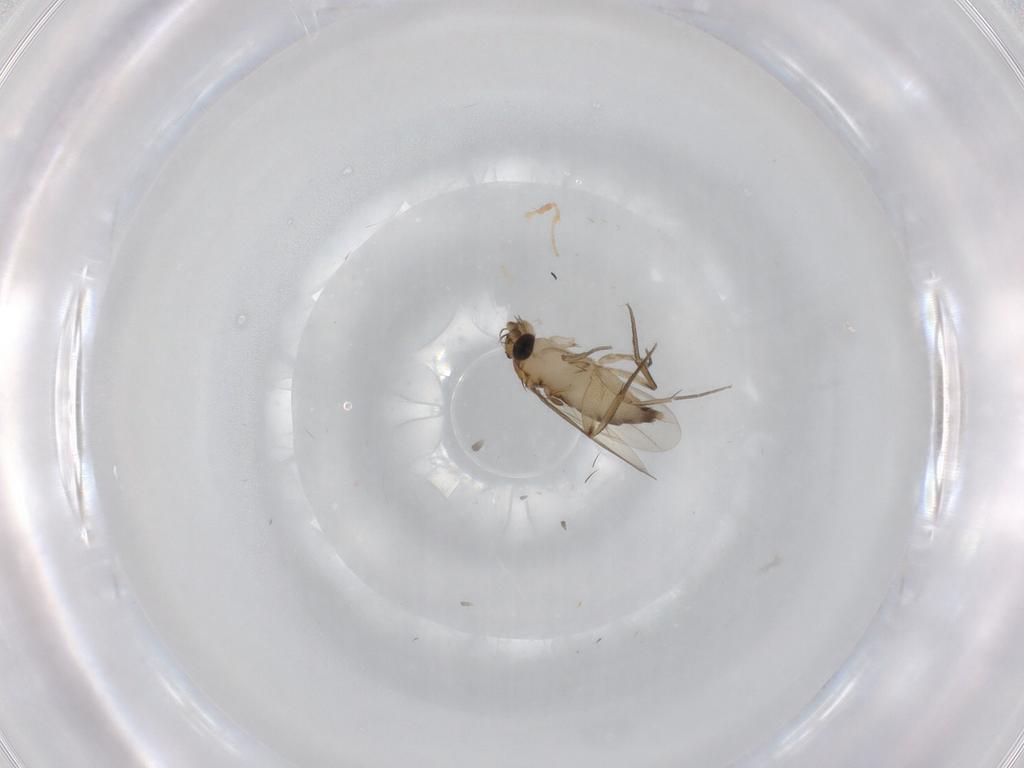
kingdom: Animalia
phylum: Arthropoda
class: Insecta
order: Diptera
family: Phoridae
